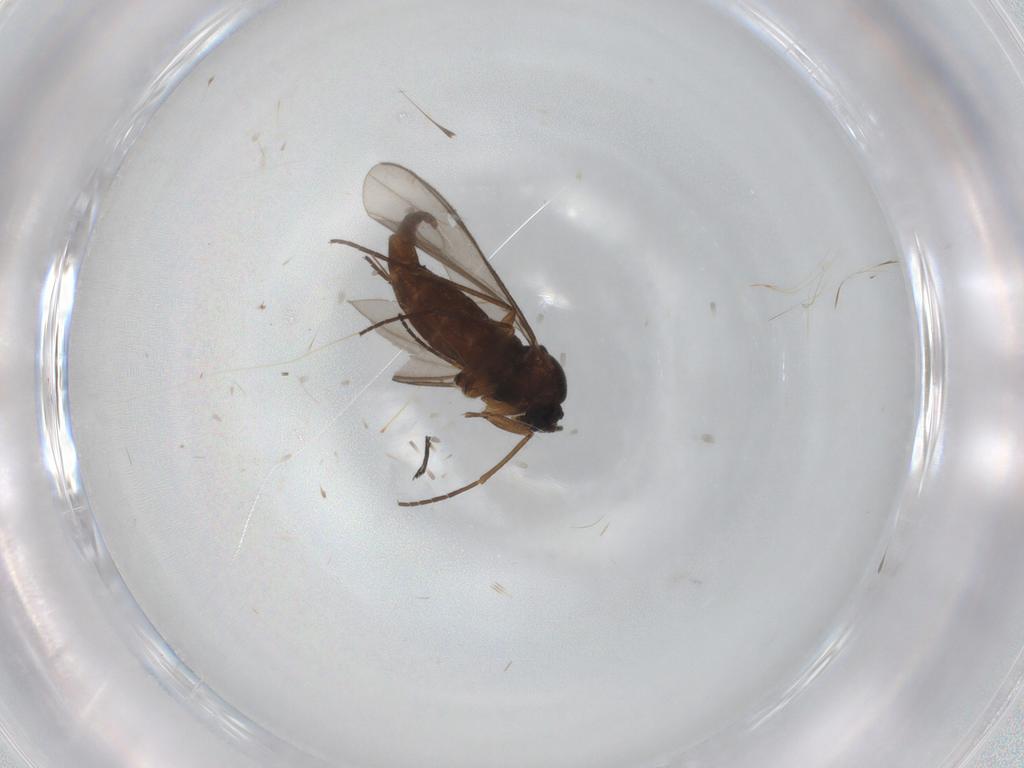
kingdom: Animalia
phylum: Arthropoda
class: Insecta
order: Diptera
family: Sciaridae
